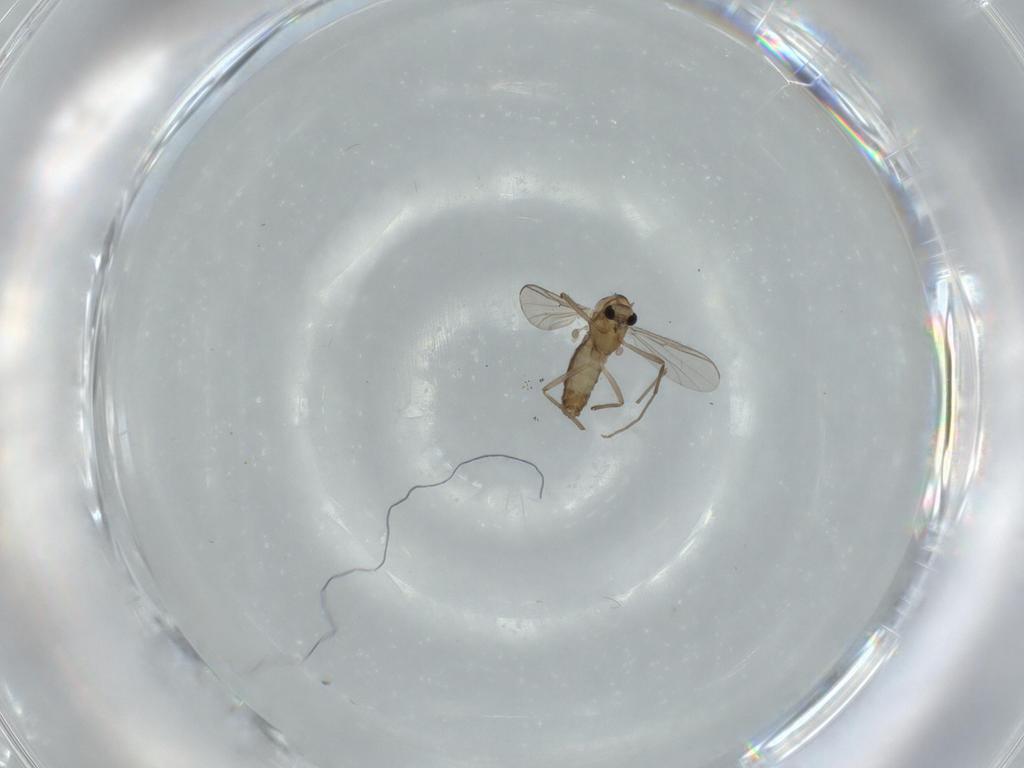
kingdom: Animalia
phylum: Arthropoda
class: Insecta
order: Diptera
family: Chironomidae
